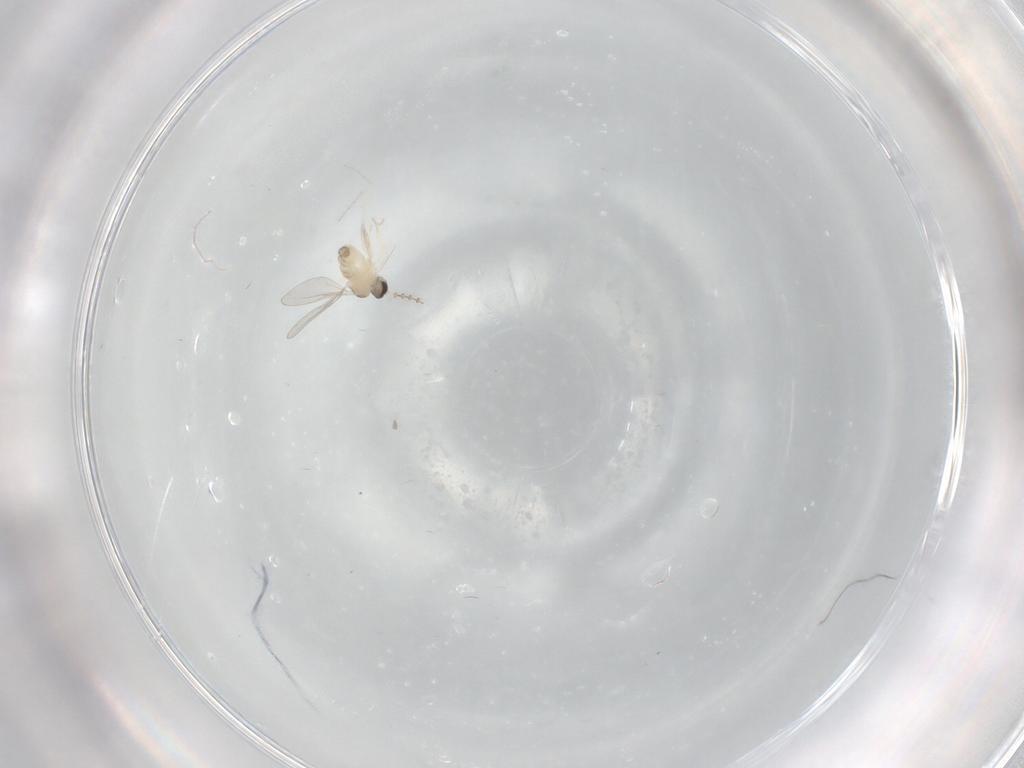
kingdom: Animalia
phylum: Arthropoda
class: Insecta
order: Diptera
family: Cecidomyiidae
